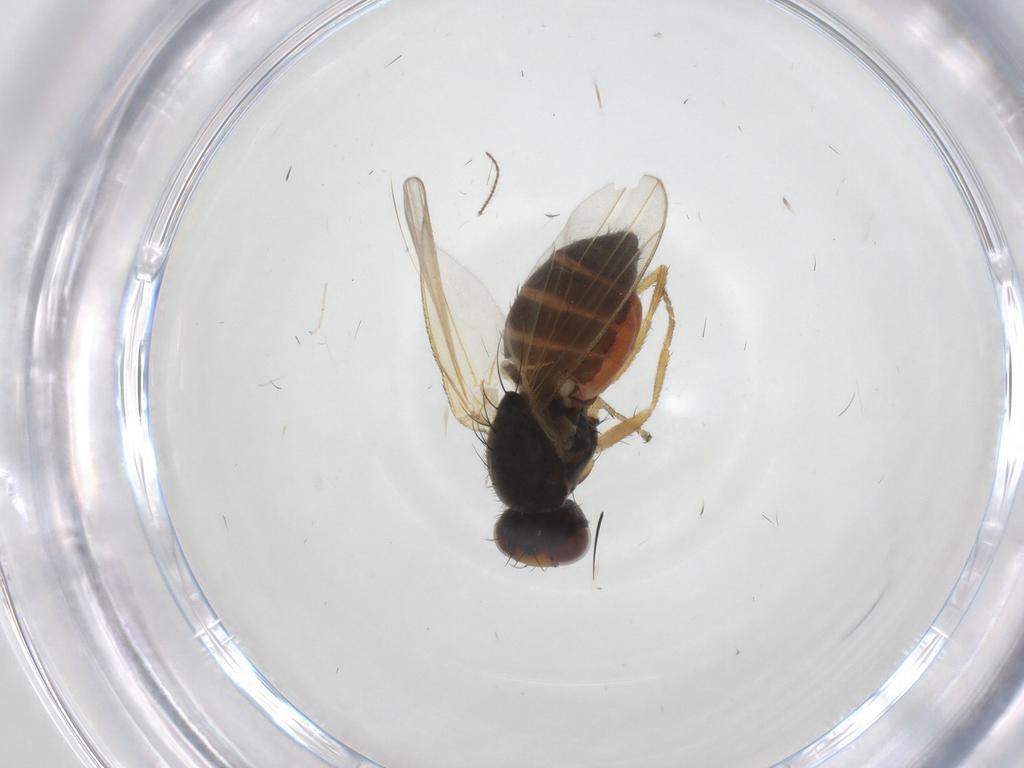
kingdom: Animalia
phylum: Arthropoda
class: Insecta
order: Diptera
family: Heleomyzidae
